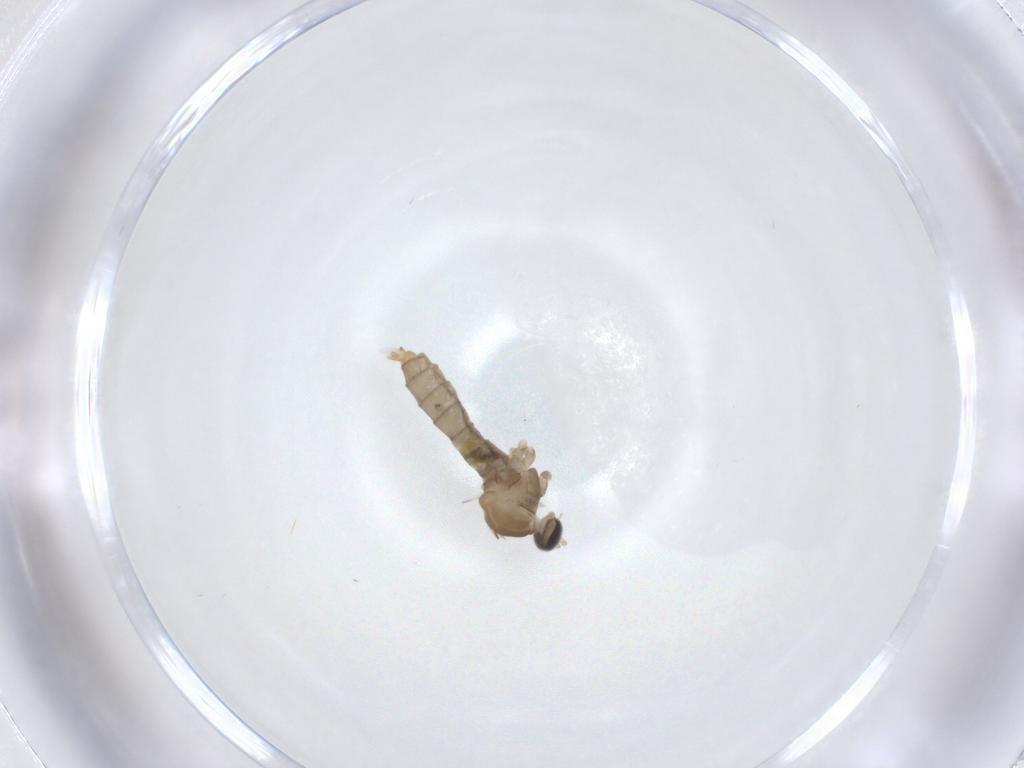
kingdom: Animalia
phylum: Arthropoda
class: Insecta
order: Diptera
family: Cecidomyiidae
